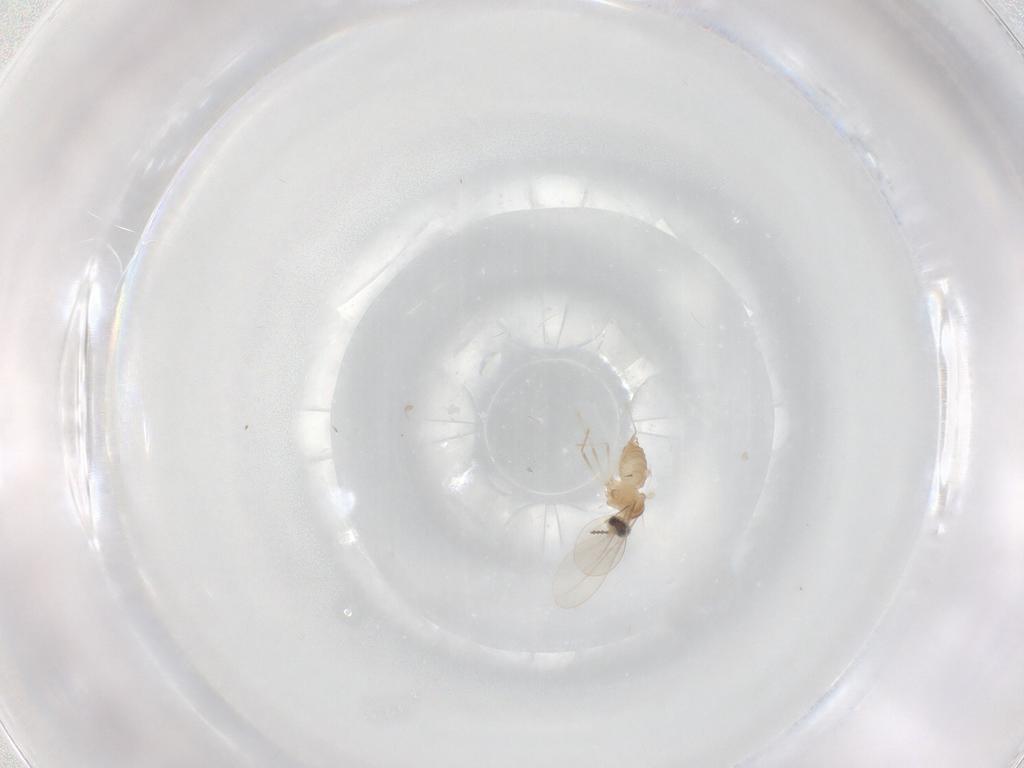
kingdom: Animalia
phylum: Arthropoda
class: Insecta
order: Diptera
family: Cecidomyiidae
